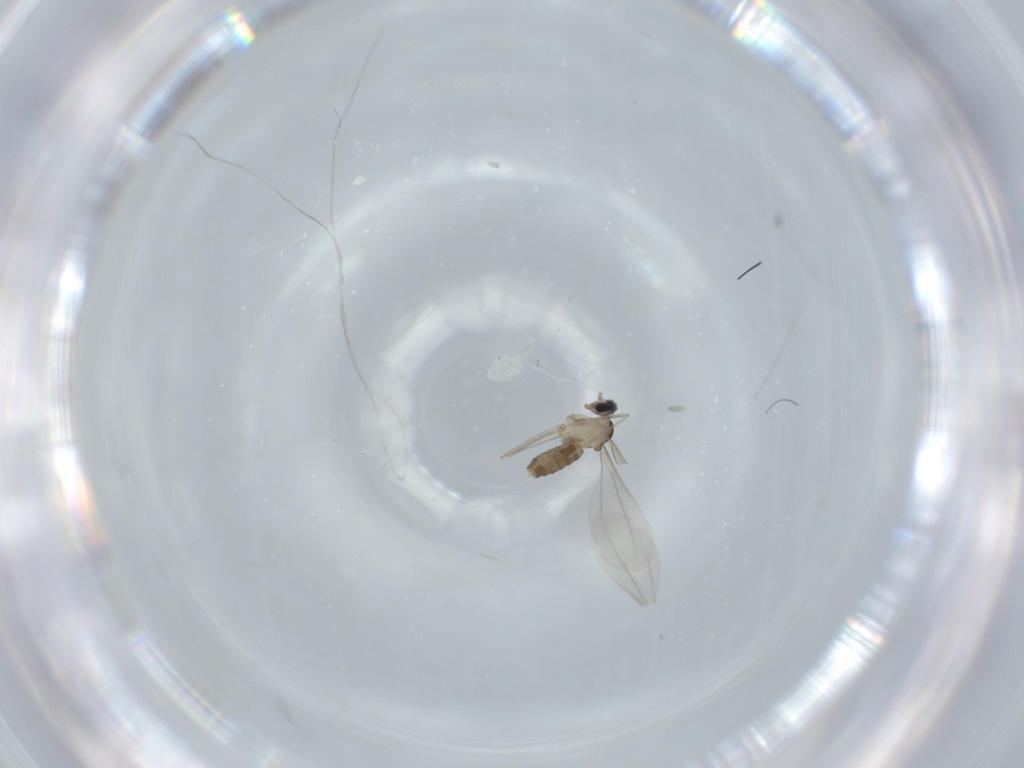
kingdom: Animalia
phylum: Arthropoda
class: Insecta
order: Diptera
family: Cecidomyiidae
